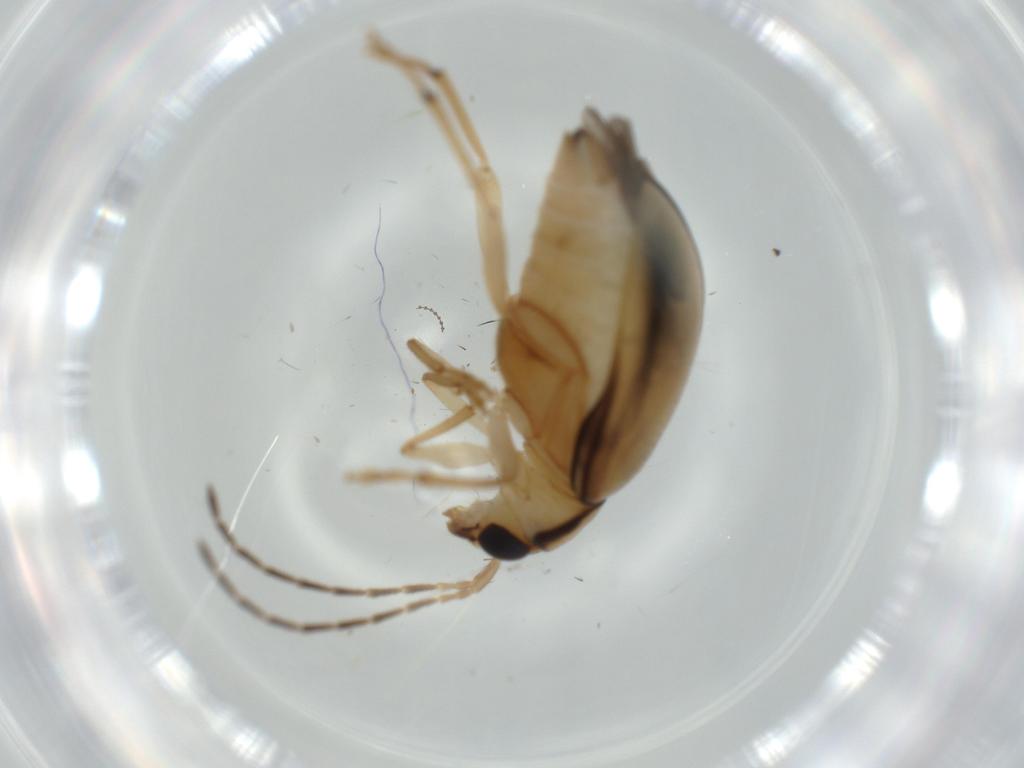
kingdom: Animalia
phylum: Arthropoda
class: Insecta
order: Coleoptera
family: Chrysomelidae
